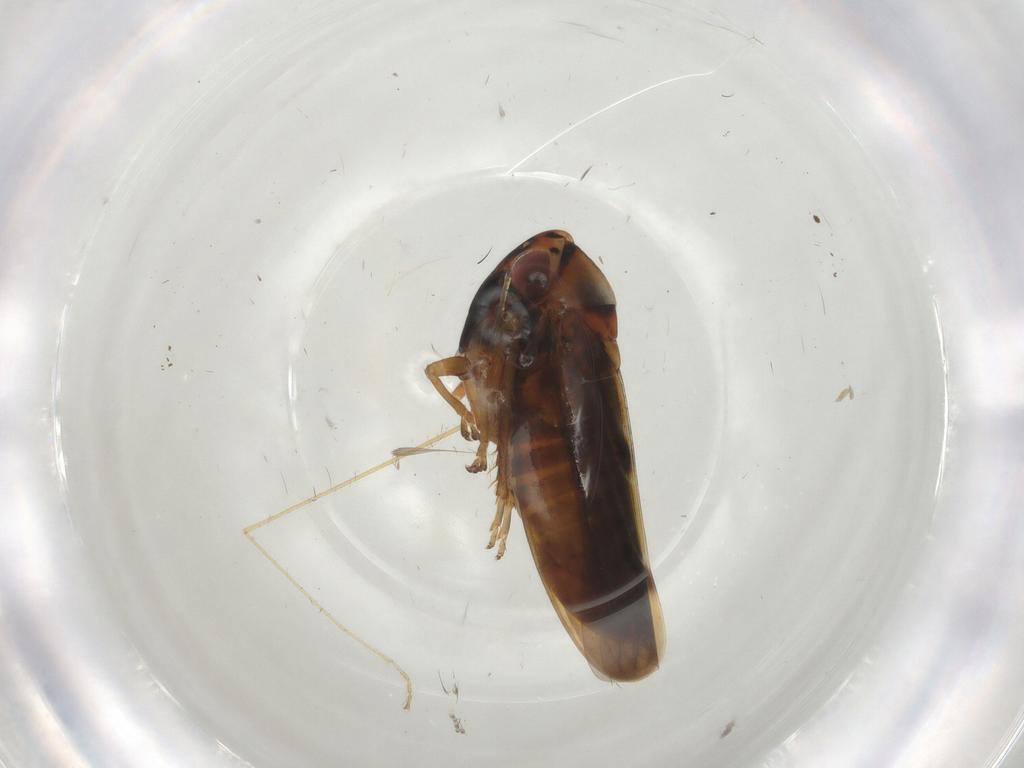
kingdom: Animalia
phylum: Arthropoda
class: Insecta
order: Hemiptera
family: Cicadellidae
